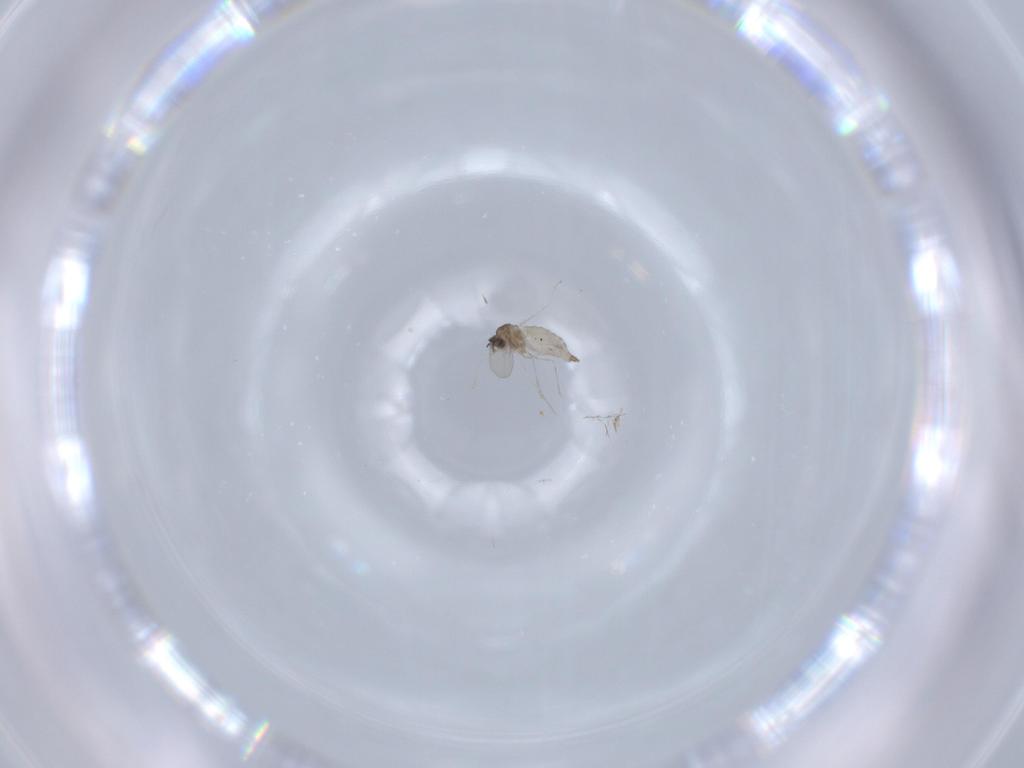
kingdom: Animalia
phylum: Arthropoda
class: Insecta
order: Diptera
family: Cecidomyiidae
